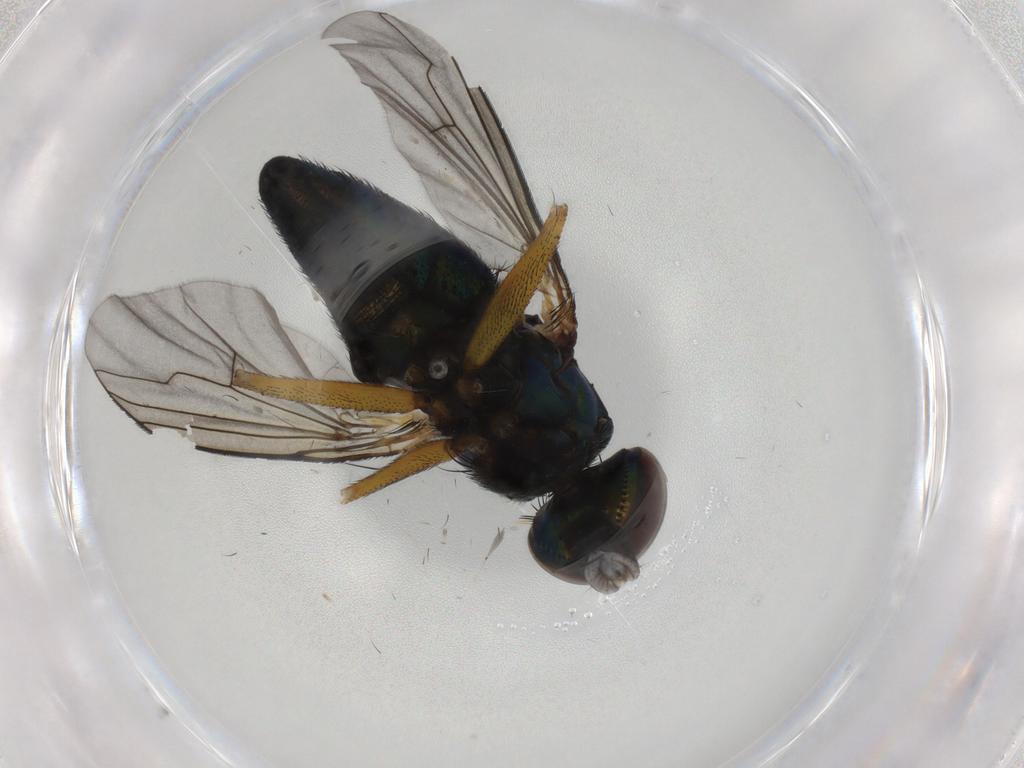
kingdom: Animalia
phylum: Arthropoda
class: Insecta
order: Diptera
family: Dolichopodidae
